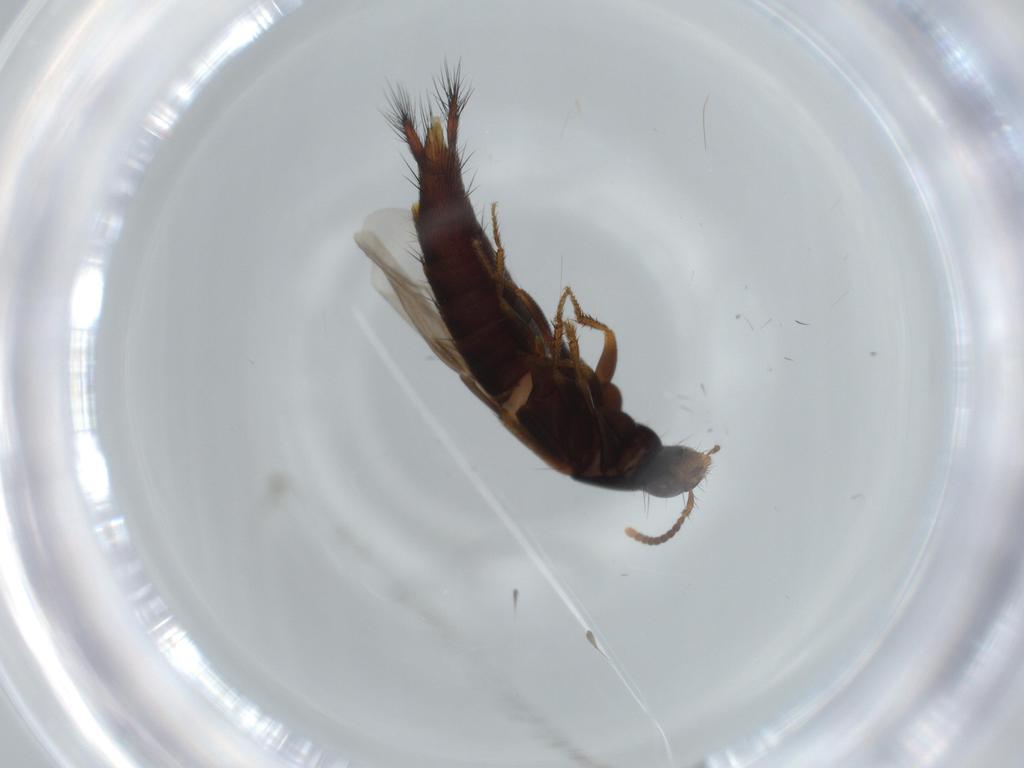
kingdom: Animalia
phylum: Arthropoda
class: Insecta
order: Coleoptera
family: Staphylinidae
